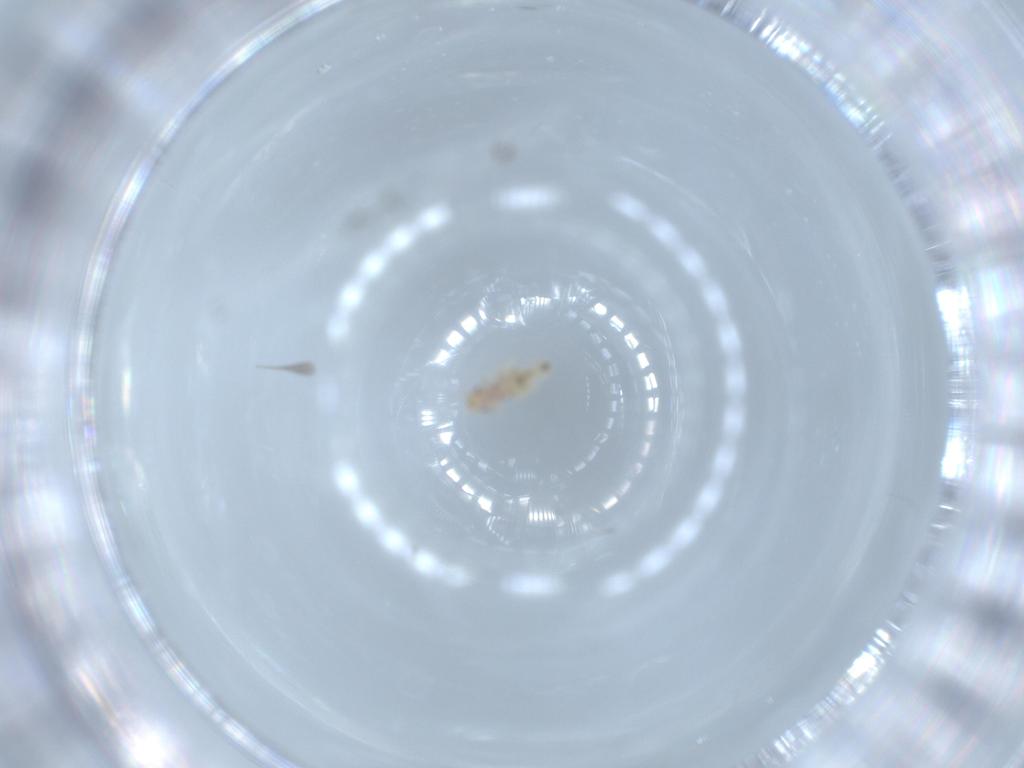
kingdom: Animalia
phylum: Arthropoda
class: Insecta
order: Psocodea
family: Liposcelididae
